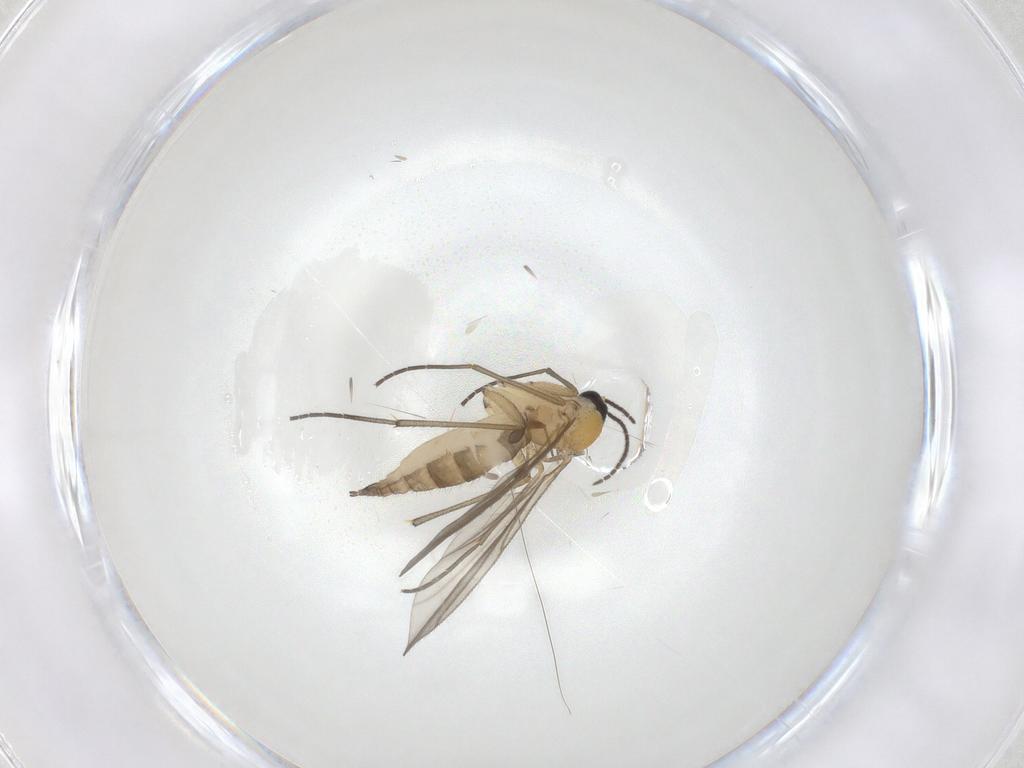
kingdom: Animalia
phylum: Arthropoda
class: Insecta
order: Diptera
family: Sciaridae
